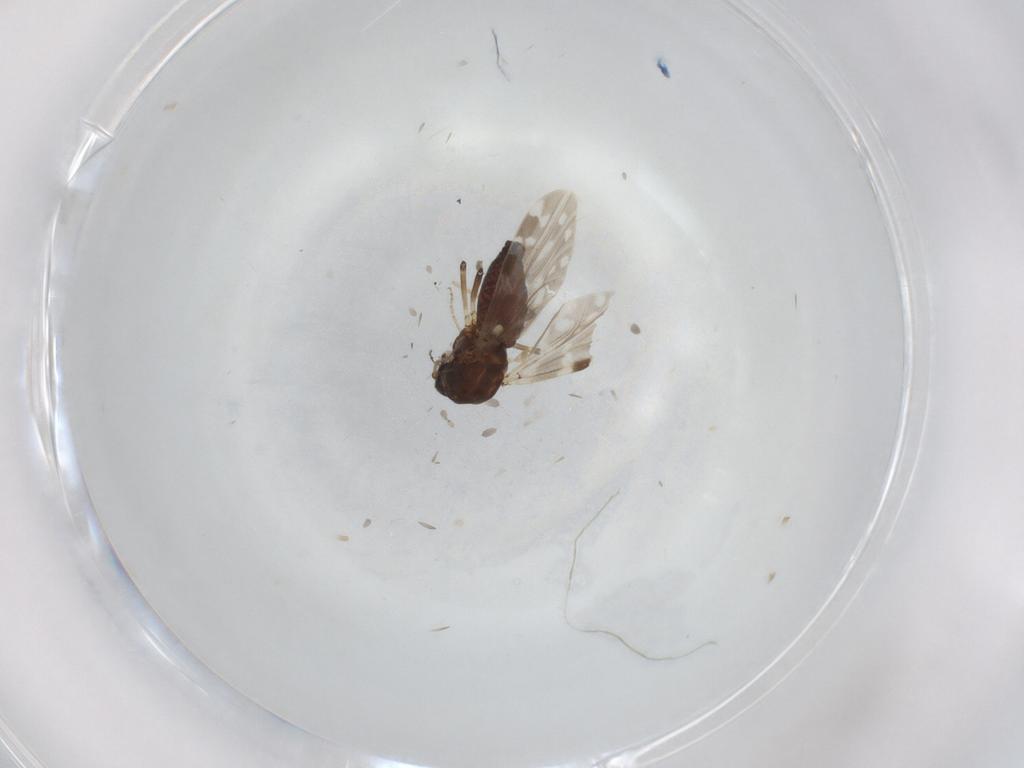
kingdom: Animalia
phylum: Arthropoda
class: Insecta
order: Diptera
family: Ceratopogonidae
